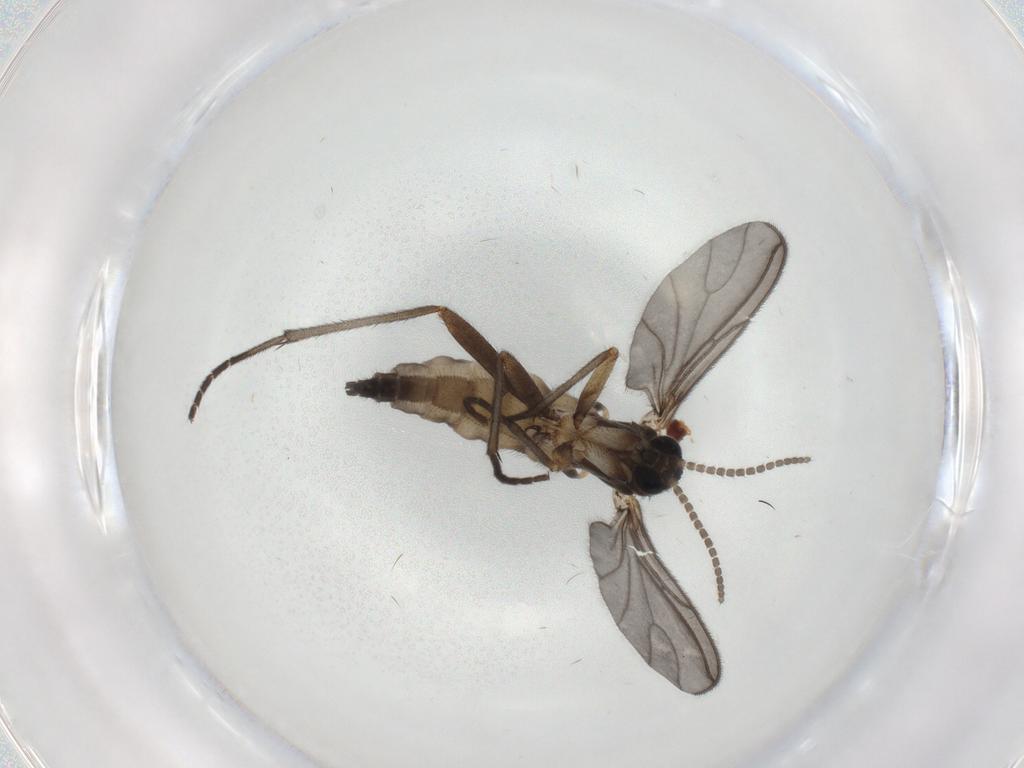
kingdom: Animalia
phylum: Arthropoda
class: Insecta
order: Diptera
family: Sciaridae
